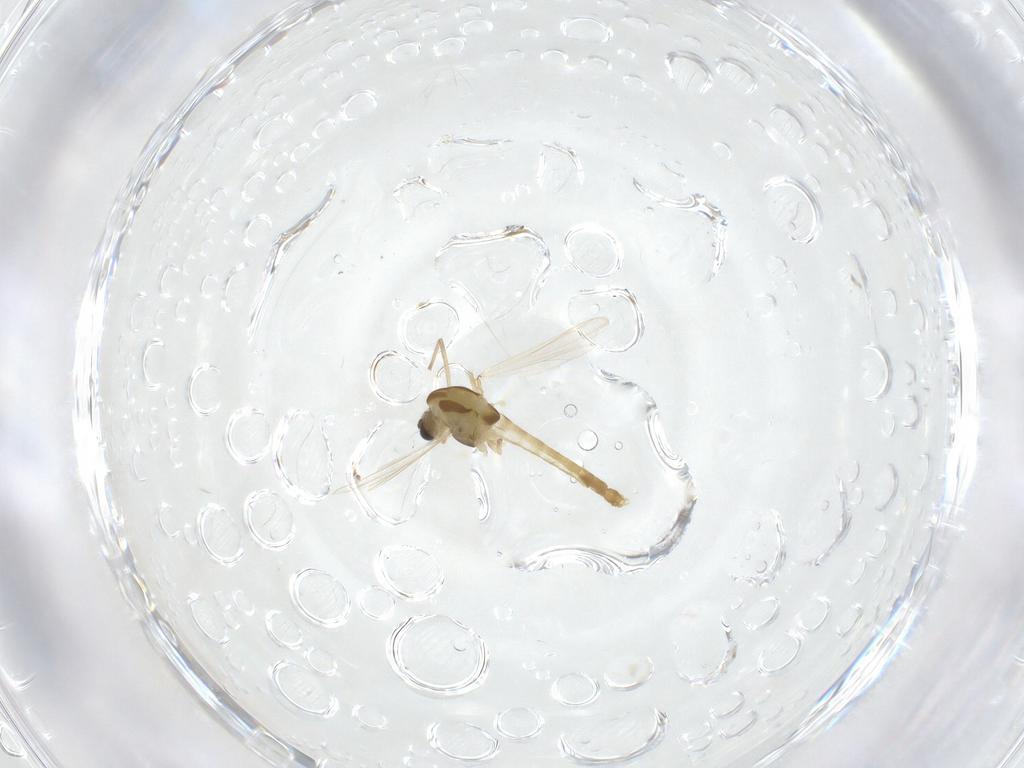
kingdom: Animalia
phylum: Arthropoda
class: Insecta
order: Diptera
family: Chironomidae
